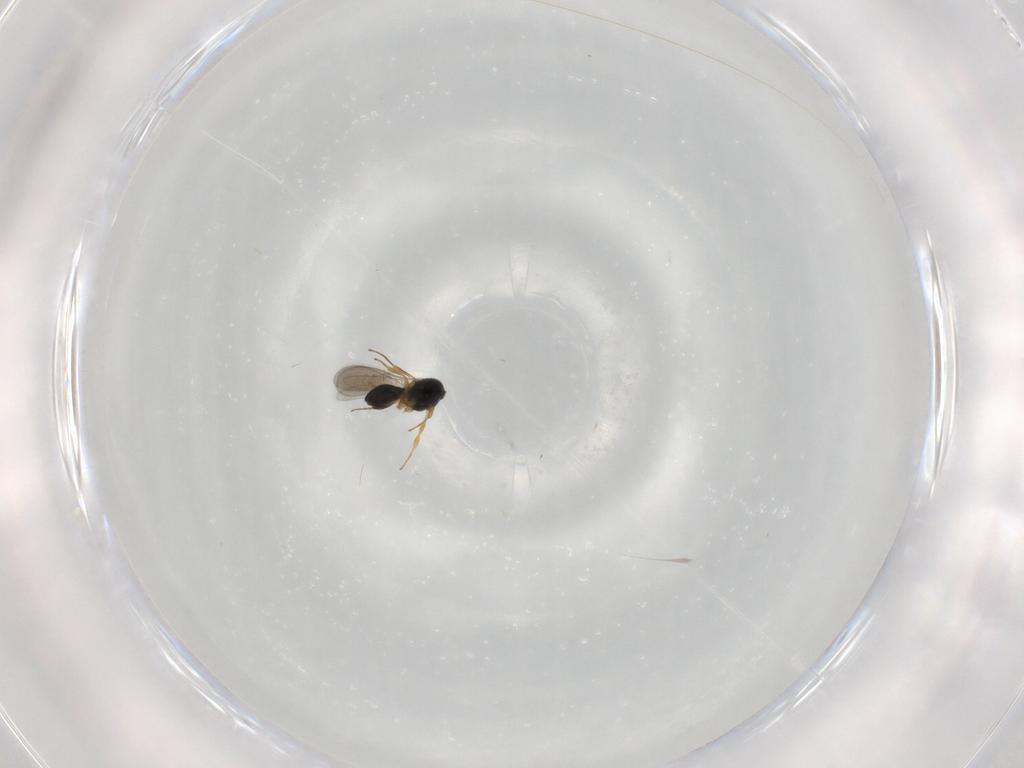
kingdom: Animalia
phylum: Arthropoda
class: Insecta
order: Hymenoptera
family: Scelionidae
